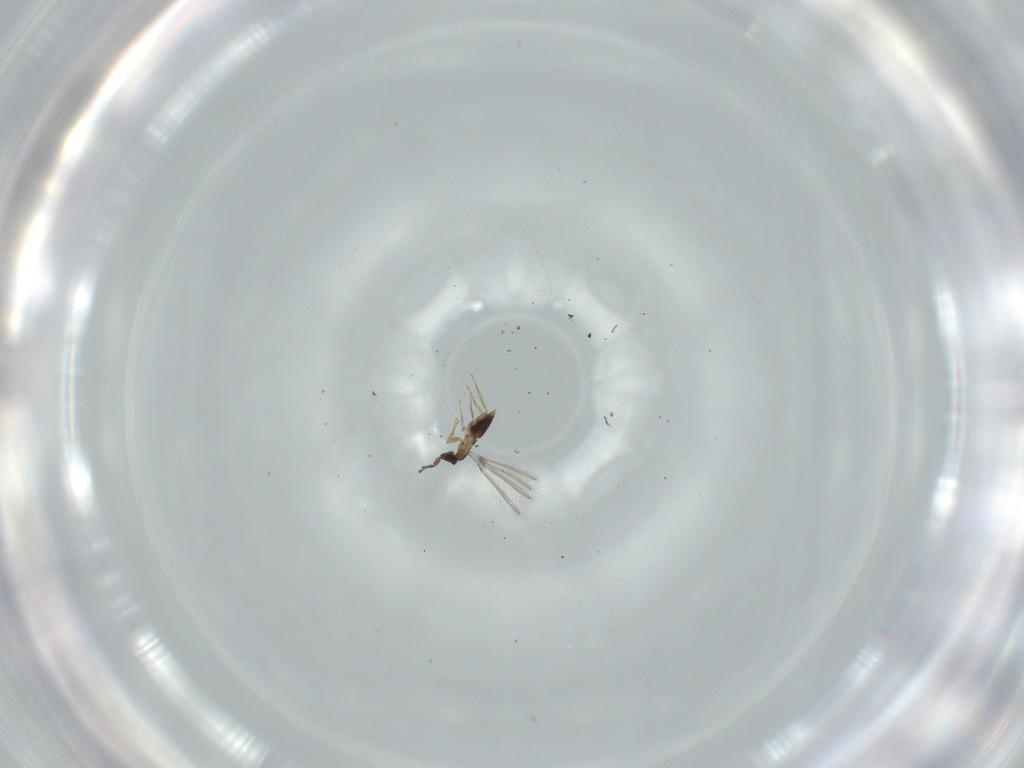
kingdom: Animalia
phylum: Arthropoda
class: Insecta
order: Hymenoptera
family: Platygastridae
